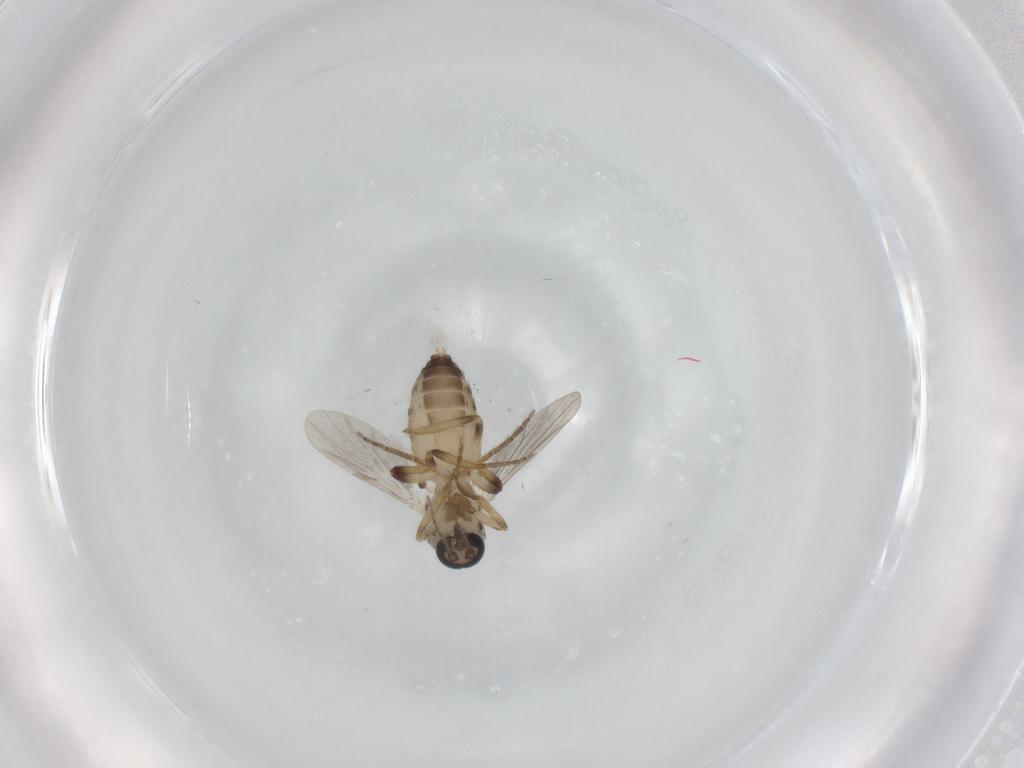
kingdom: Animalia
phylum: Arthropoda
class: Insecta
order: Diptera
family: Ceratopogonidae
